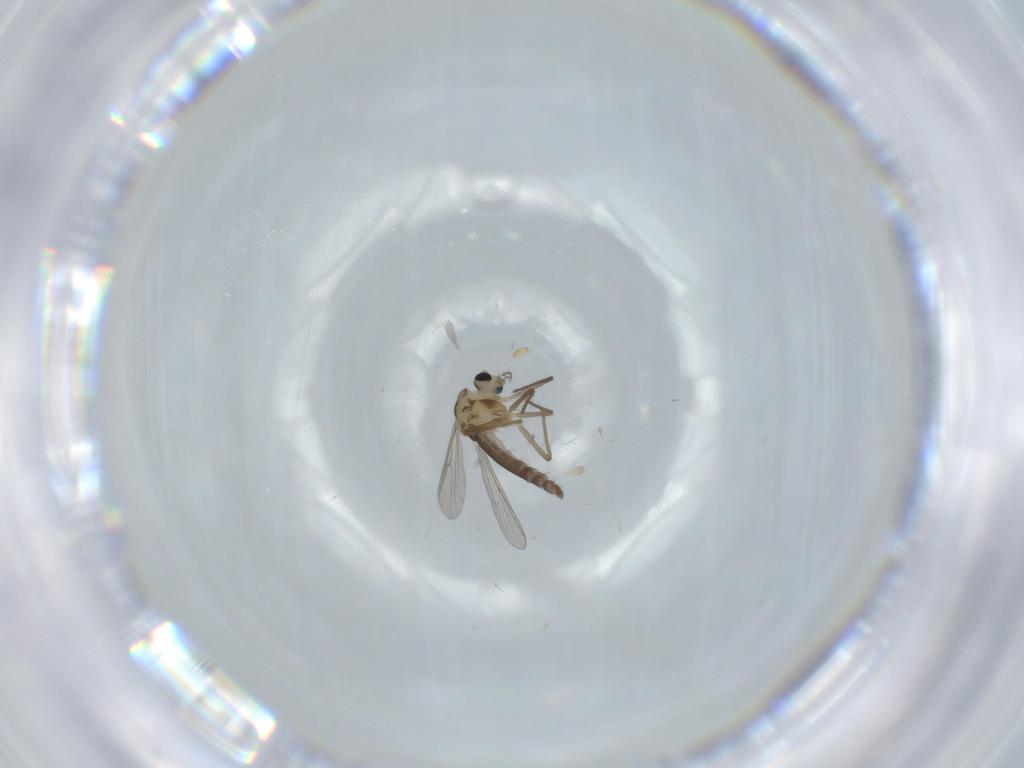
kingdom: Animalia
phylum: Arthropoda
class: Insecta
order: Diptera
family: Chironomidae
